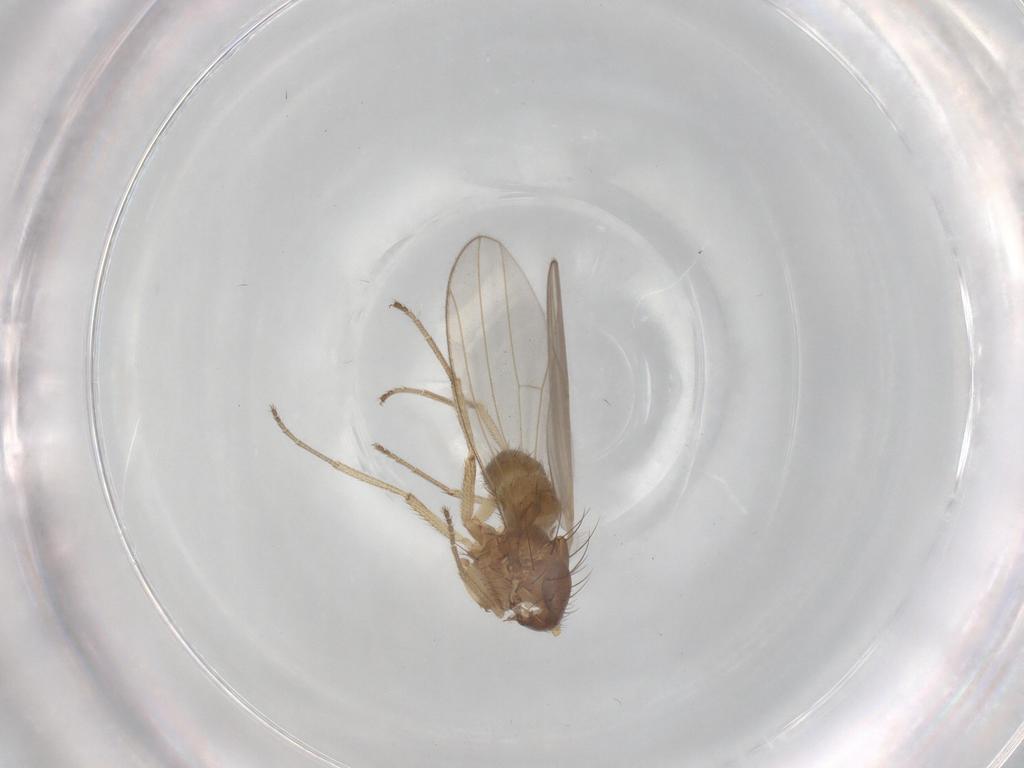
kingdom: Animalia
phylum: Arthropoda
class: Insecta
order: Diptera
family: Drosophilidae
